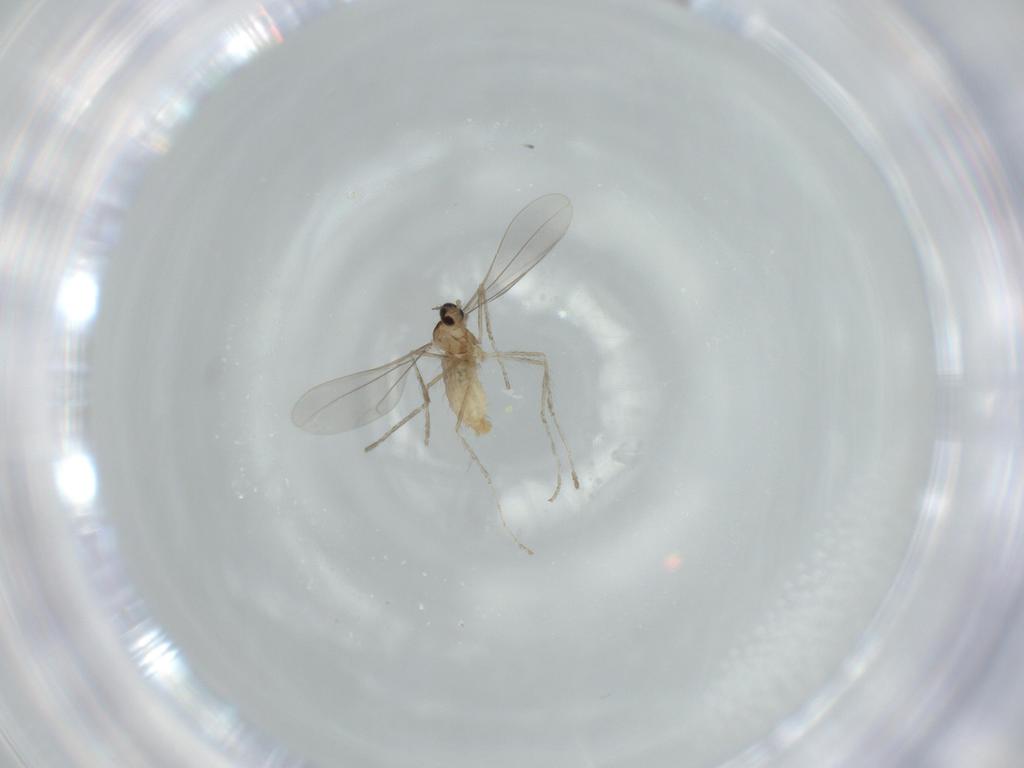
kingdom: Animalia
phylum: Arthropoda
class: Insecta
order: Diptera
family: Cecidomyiidae
